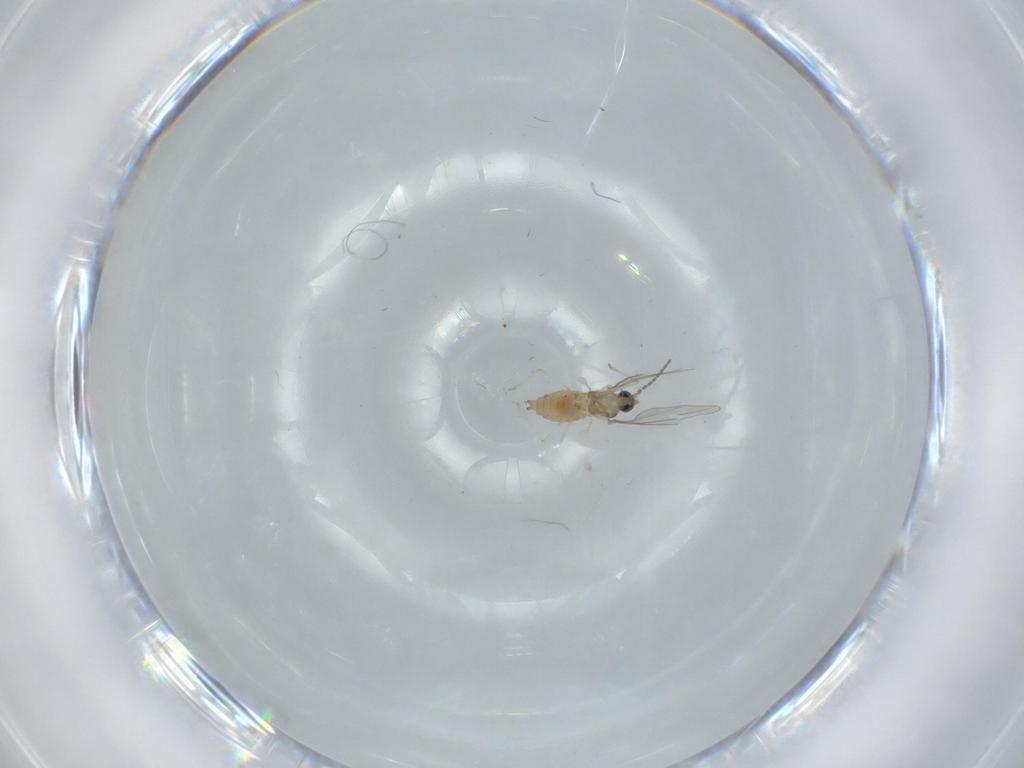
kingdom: Animalia
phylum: Arthropoda
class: Insecta
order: Diptera
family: Cecidomyiidae
